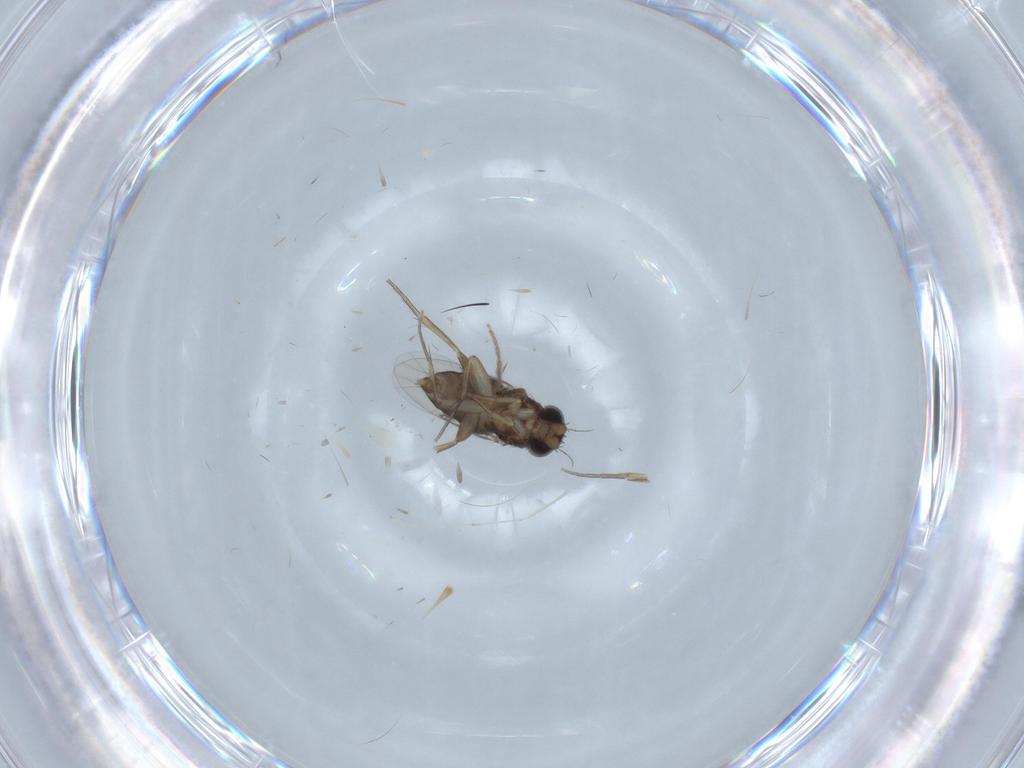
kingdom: Animalia
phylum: Arthropoda
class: Insecta
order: Diptera
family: Phoridae
